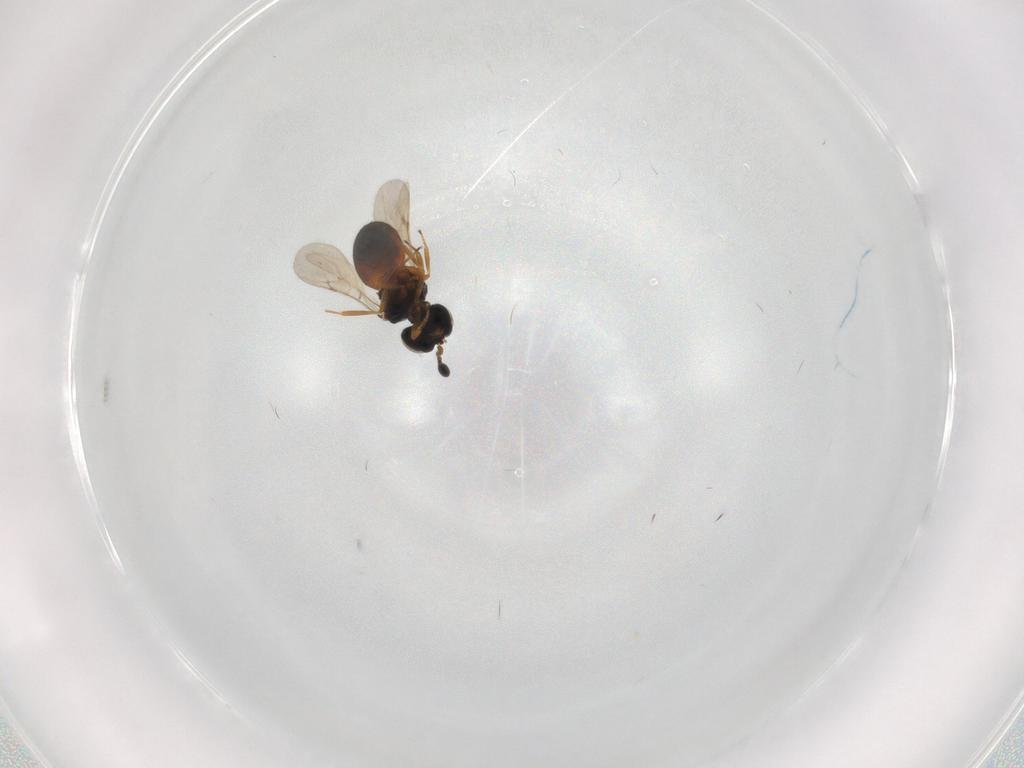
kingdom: Animalia
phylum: Arthropoda
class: Insecta
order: Hymenoptera
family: Scelionidae
